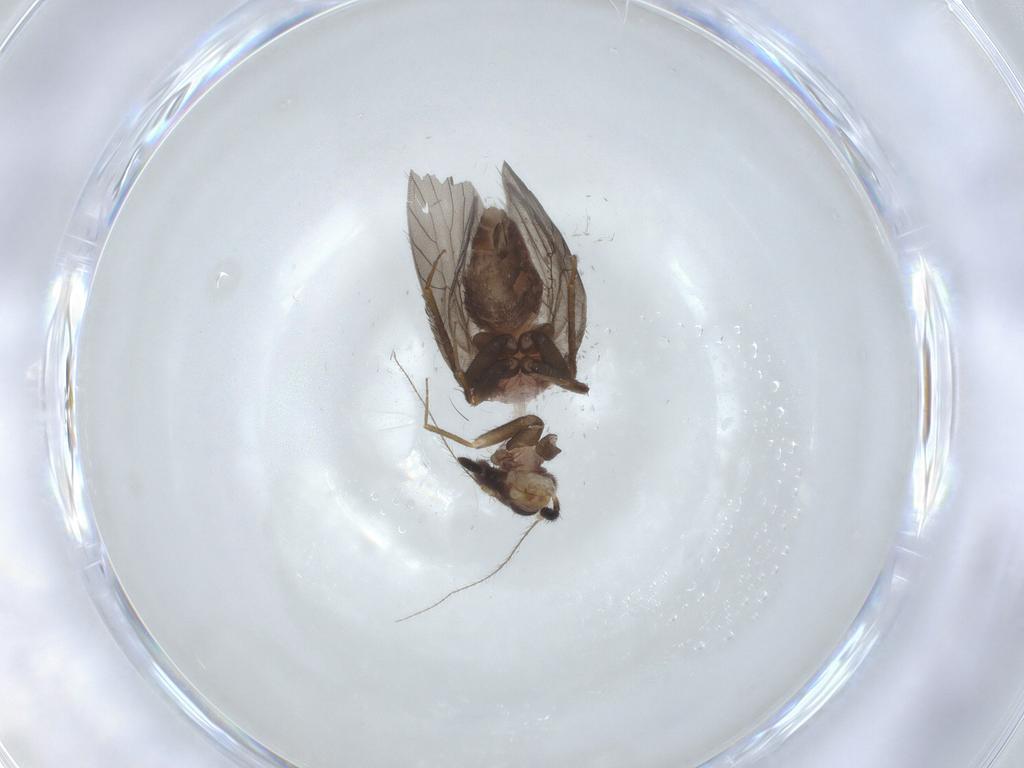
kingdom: Animalia
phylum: Arthropoda
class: Insecta
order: Psocodea
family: Lepidopsocidae
